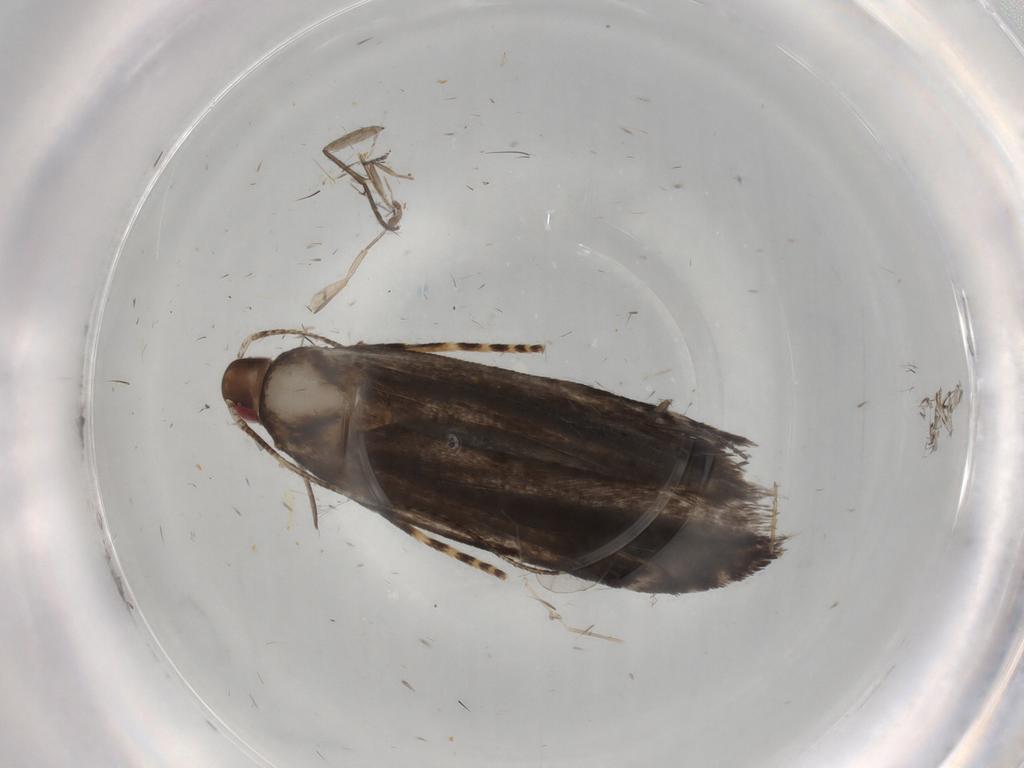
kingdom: Animalia
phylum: Arthropoda
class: Insecta
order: Lepidoptera
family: Gelechiidae
